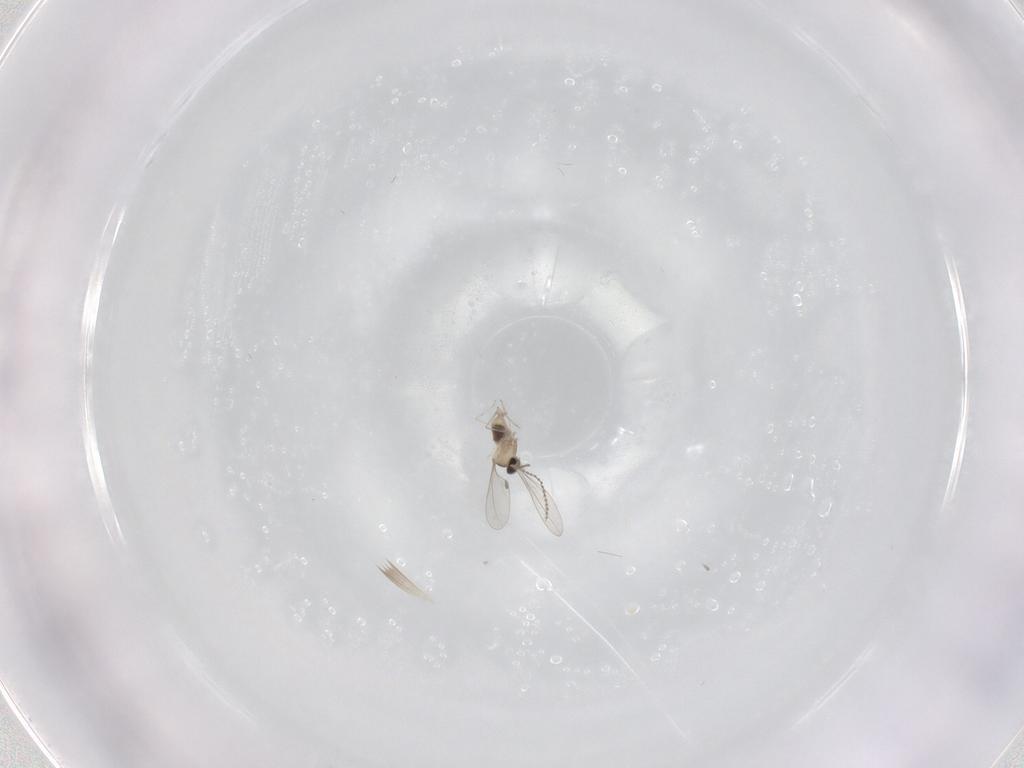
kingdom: Animalia
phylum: Arthropoda
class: Insecta
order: Diptera
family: Cecidomyiidae
